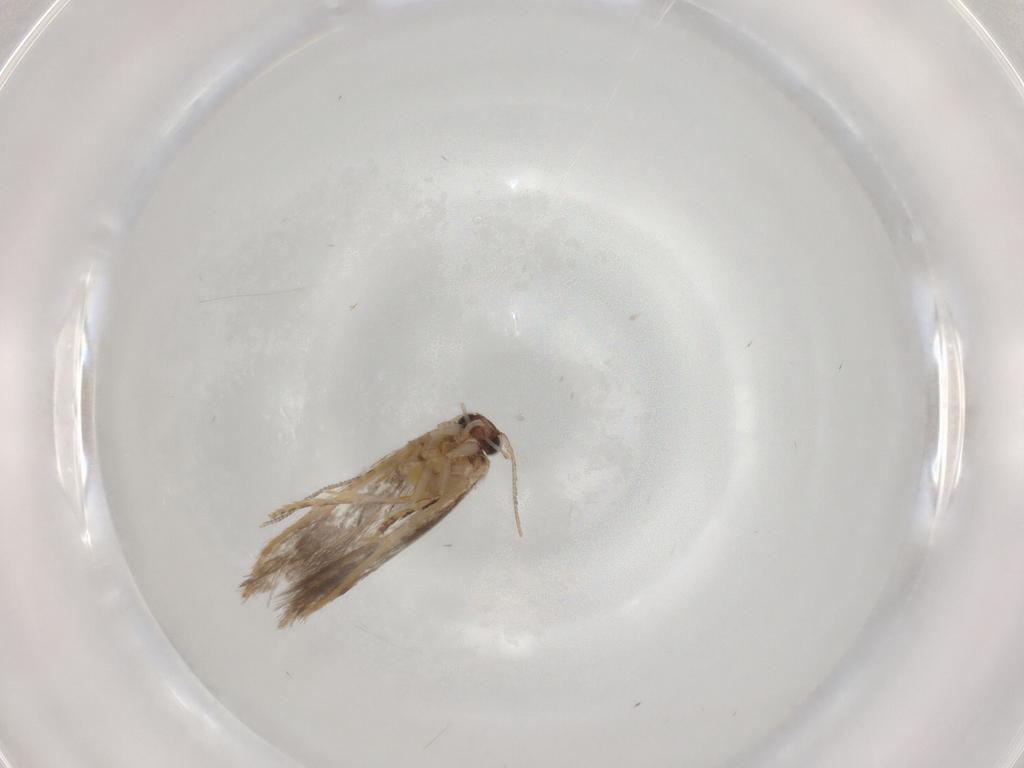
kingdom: Animalia
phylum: Arthropoda
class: Insecta
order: Lepidoptera
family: Tineidae
